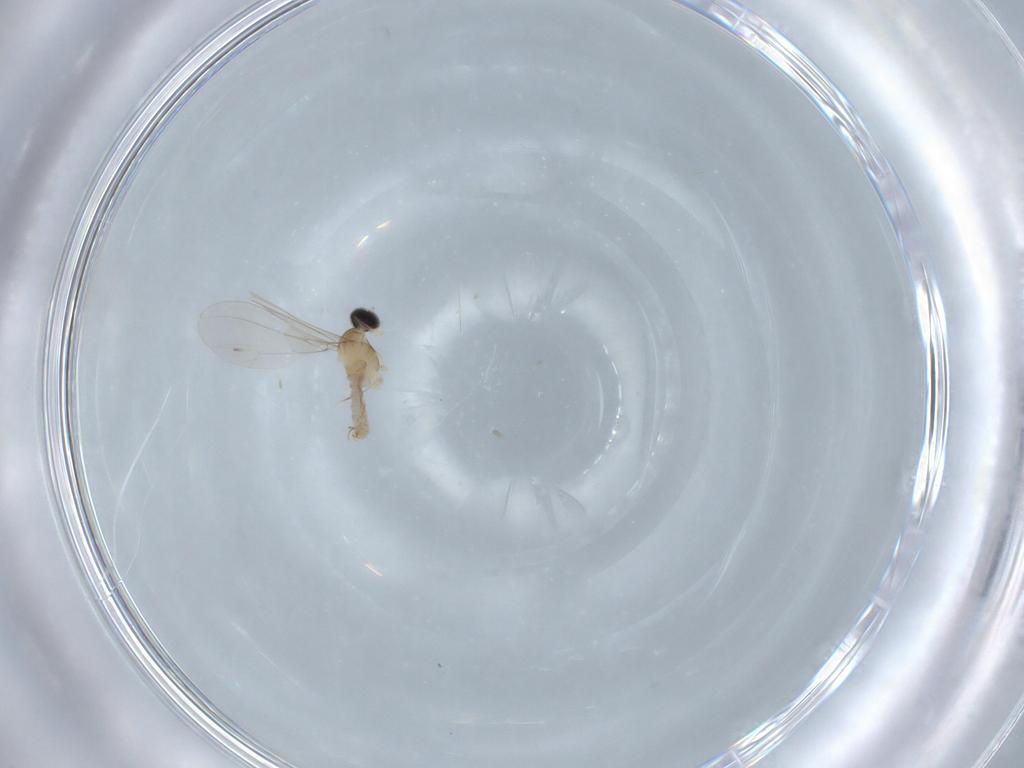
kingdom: Animalia
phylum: Arthropoda
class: Insecta
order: Diptera
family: Cecidomyiidae
